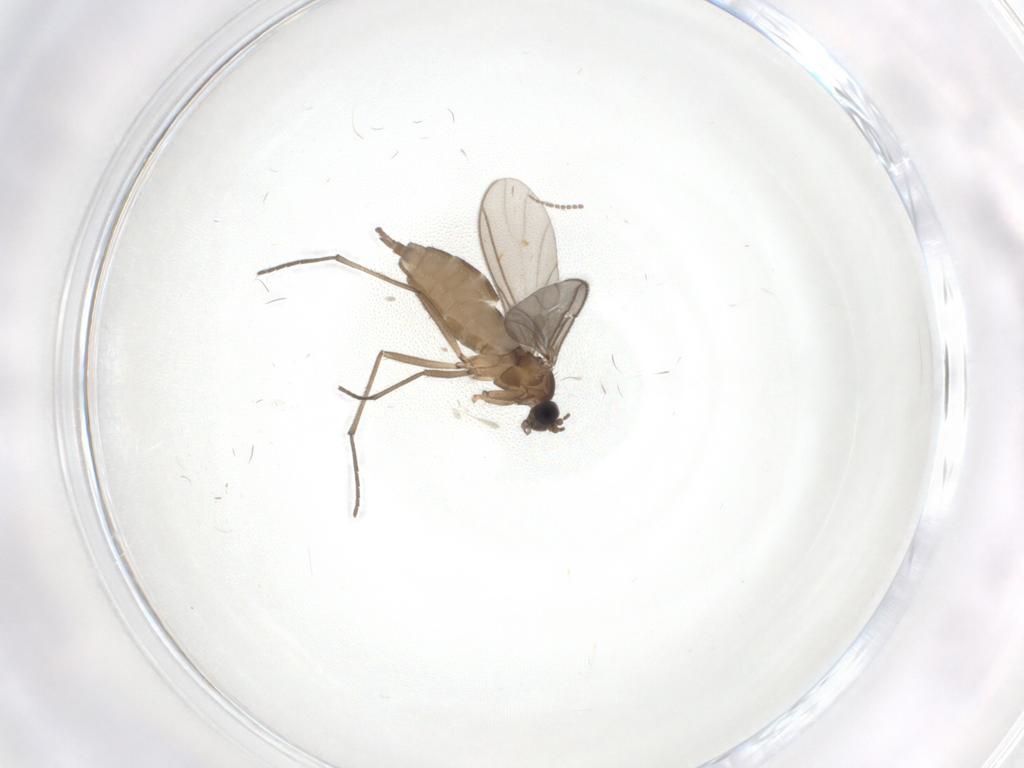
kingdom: Animalia
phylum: Arthropoda
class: Insecta
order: Diptera
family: Sciaridae
